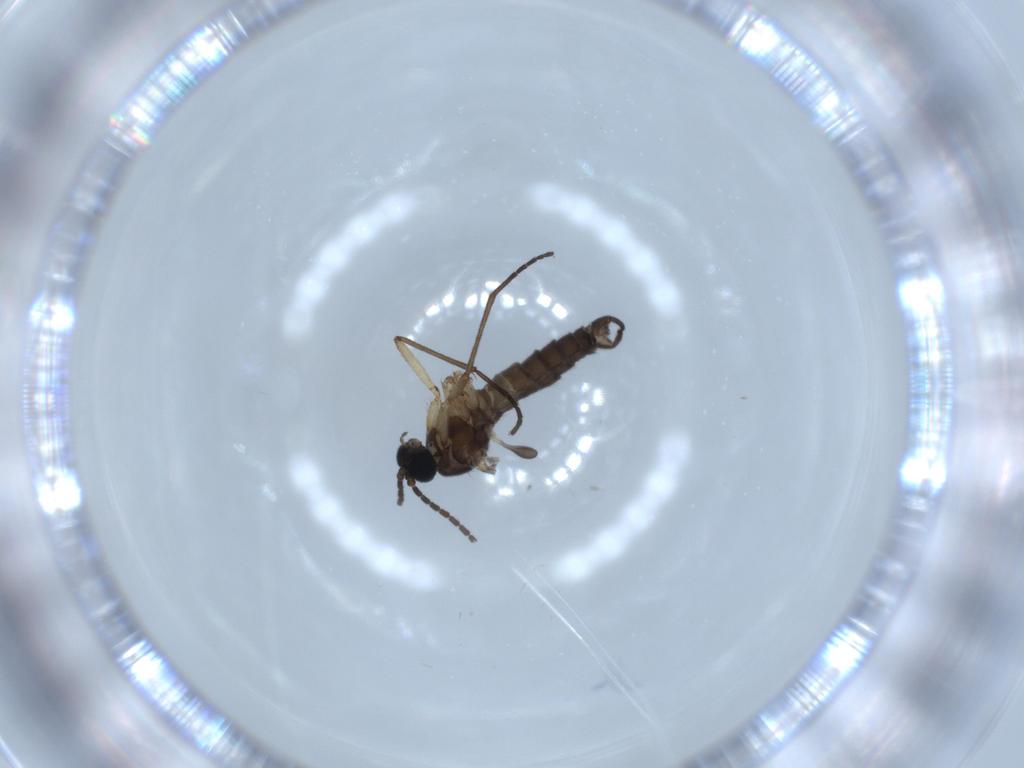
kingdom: Animalia
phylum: Arthropoda
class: Insecta
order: Diptera
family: Sciaridae
